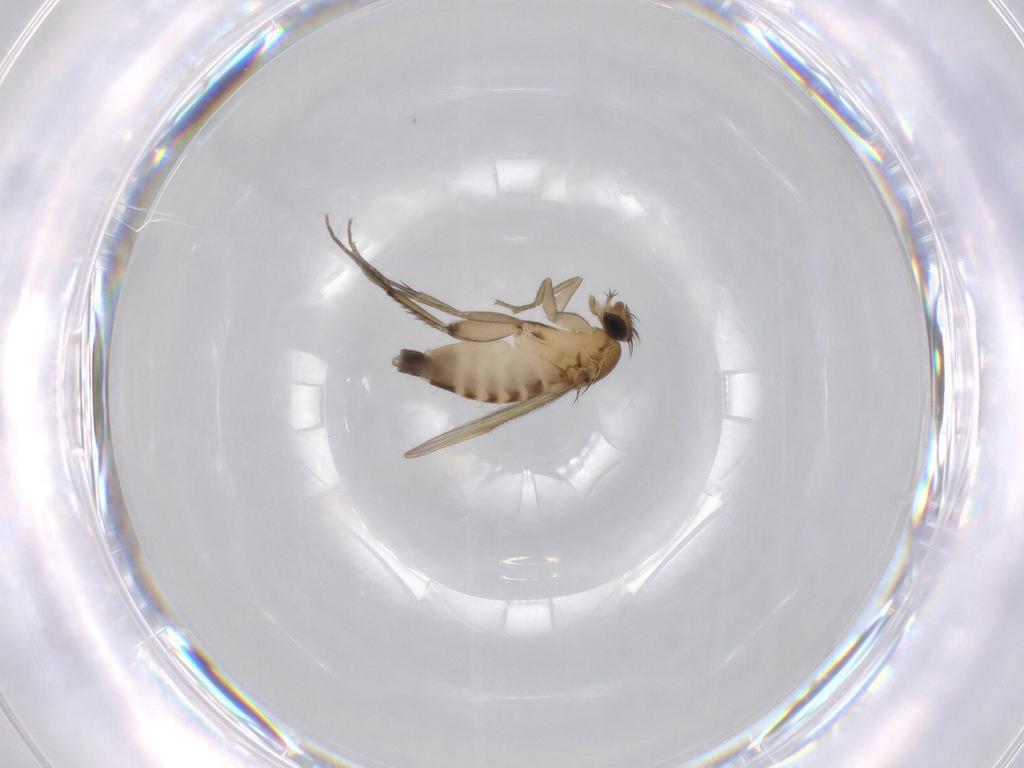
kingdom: Animalia
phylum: Arthropoda
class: Insecta
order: Diptera
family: Phoridae
